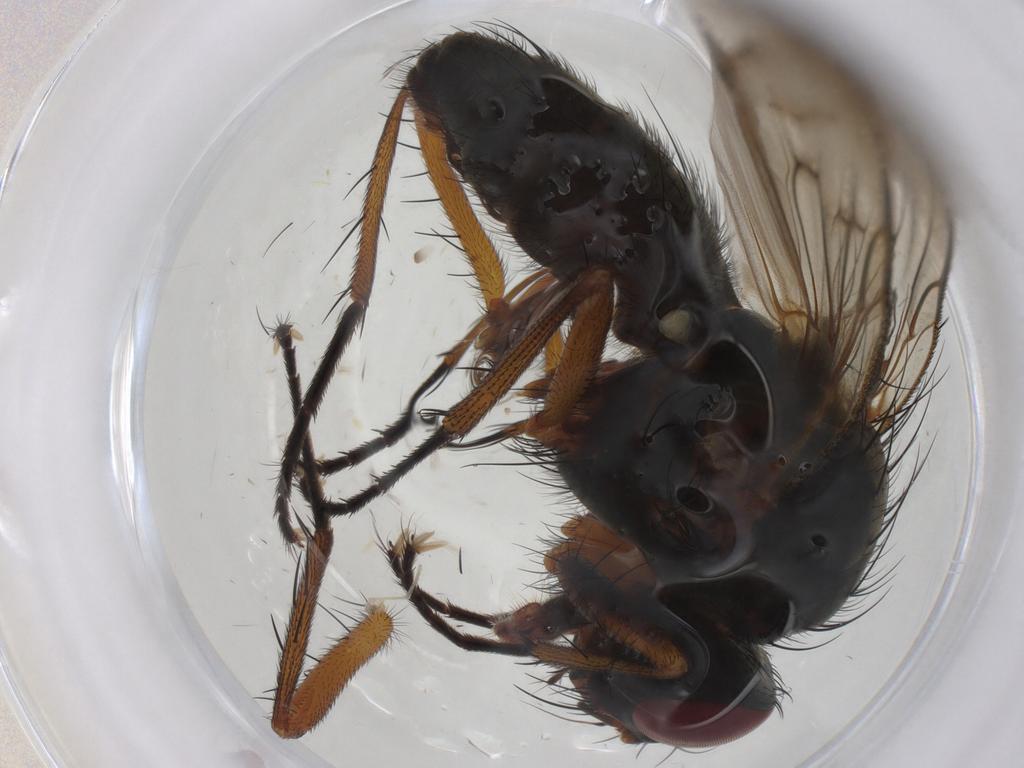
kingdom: Animalia
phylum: Arthropoda
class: Insecta
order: Diptera
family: Anthomyiidae
